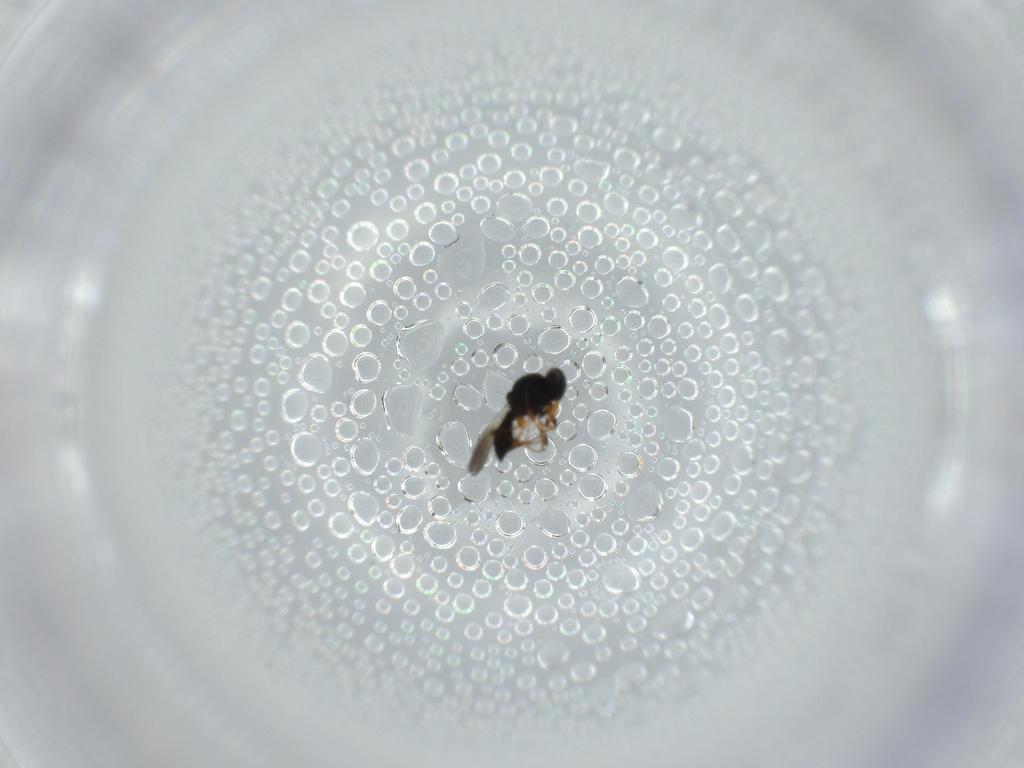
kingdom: Animalia
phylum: Arthropoda
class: Insecta
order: Hymenoptera
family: Platygastridae
